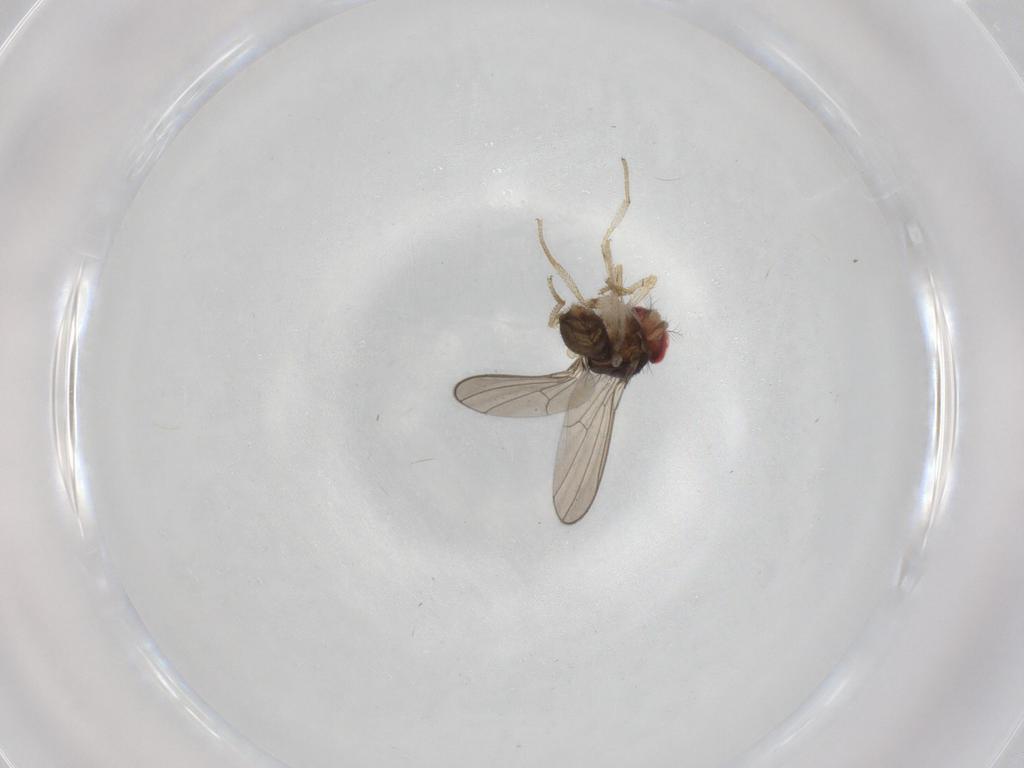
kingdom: Animalia
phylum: Arthropoda
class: Insecta
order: Diptera
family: Drosophilidae
